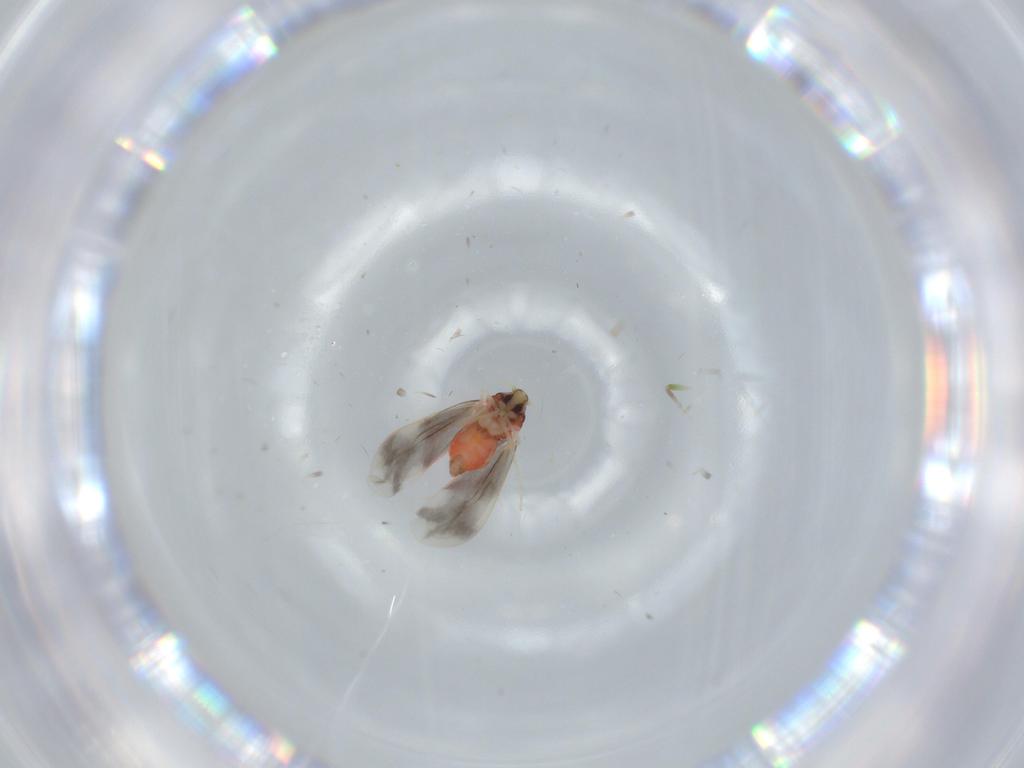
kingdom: Animalia
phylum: Arthropoda
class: Insecta
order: Hemiptera
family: Aleyrodidae
